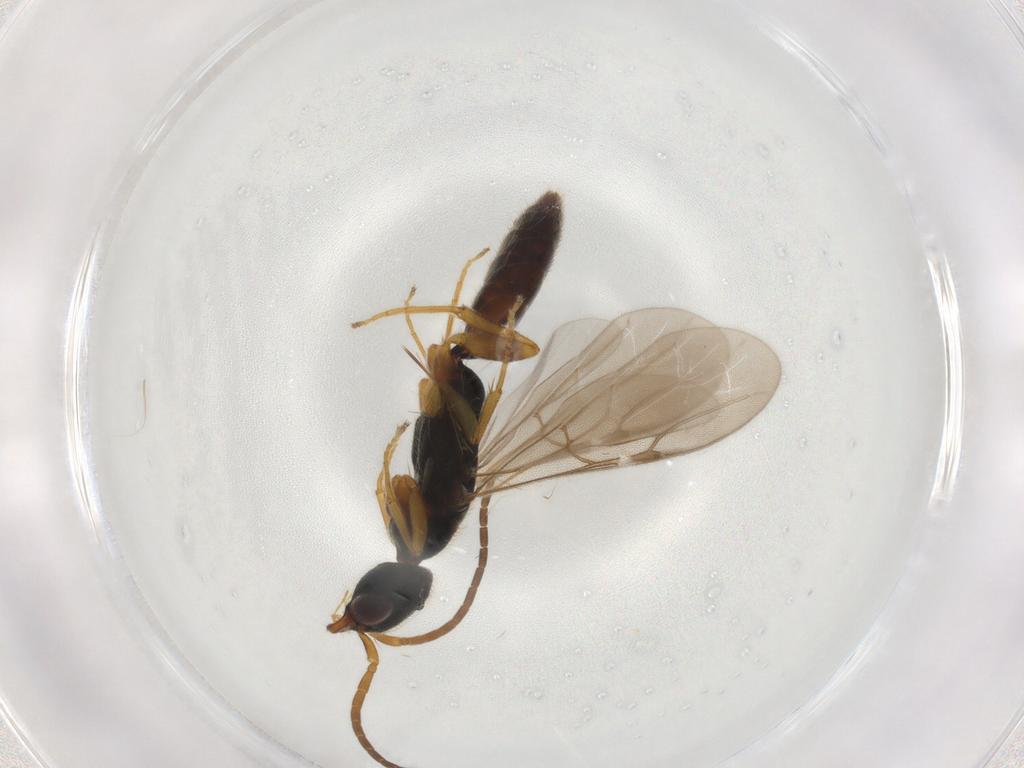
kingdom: Animalia
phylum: Arthropoda
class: Insecta
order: Hymenoptera
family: Bethylidae
